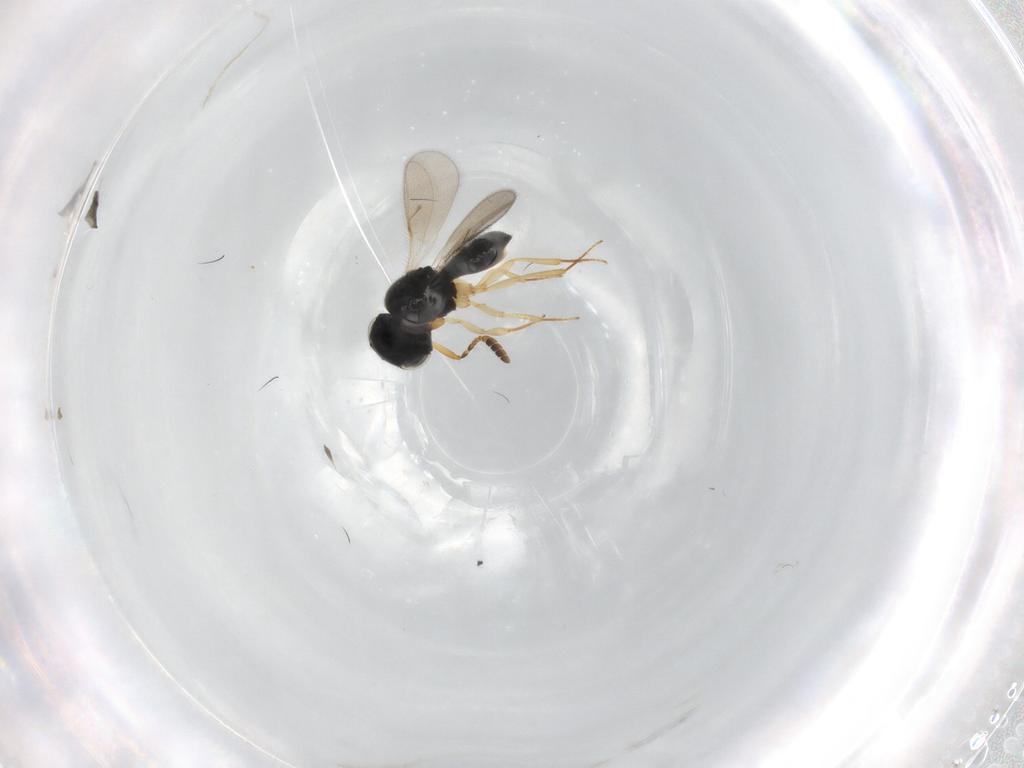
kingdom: Animalia
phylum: Arthropoda
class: Insecta
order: Hymenoptera
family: Scelionidae
